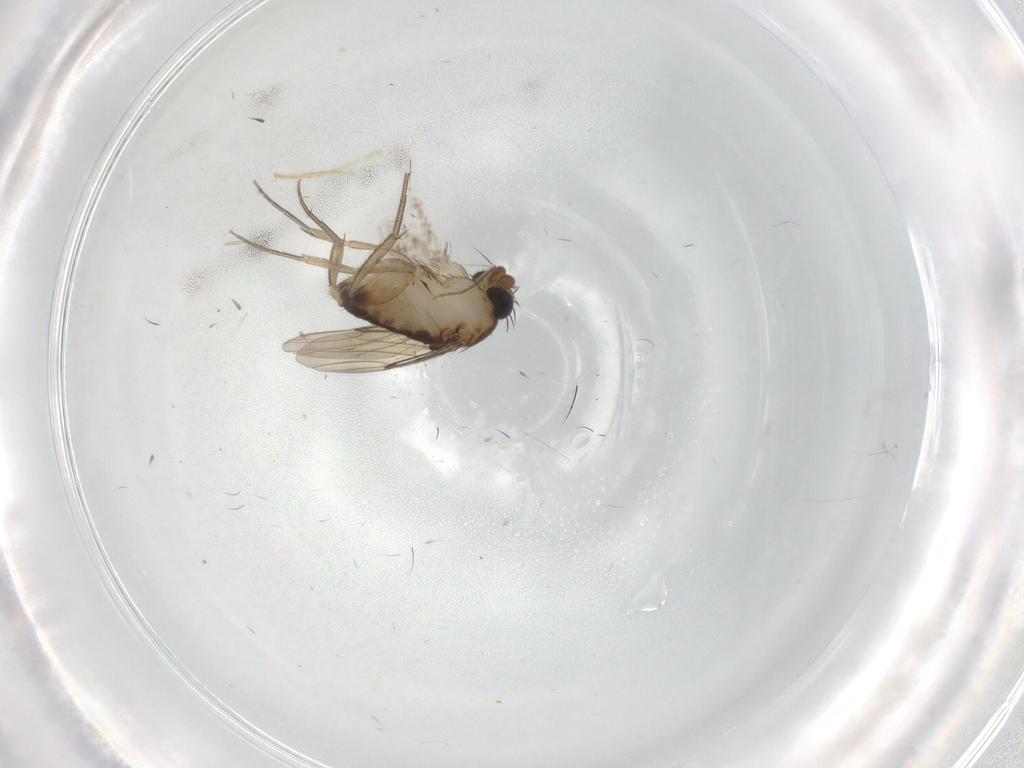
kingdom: Animalia
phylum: Arthropoda
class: Insecta
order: Diptera
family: Phoridae
